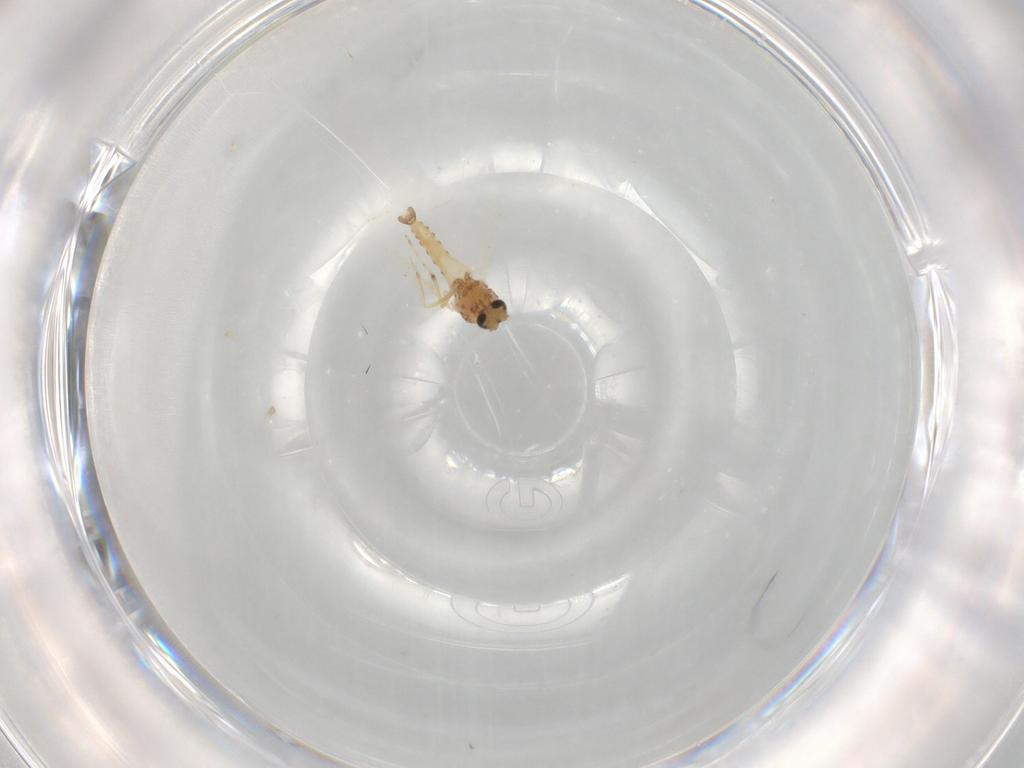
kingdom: Animalia
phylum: Arthropoda
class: Insecta
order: Diptera
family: Ceratopogonidae
